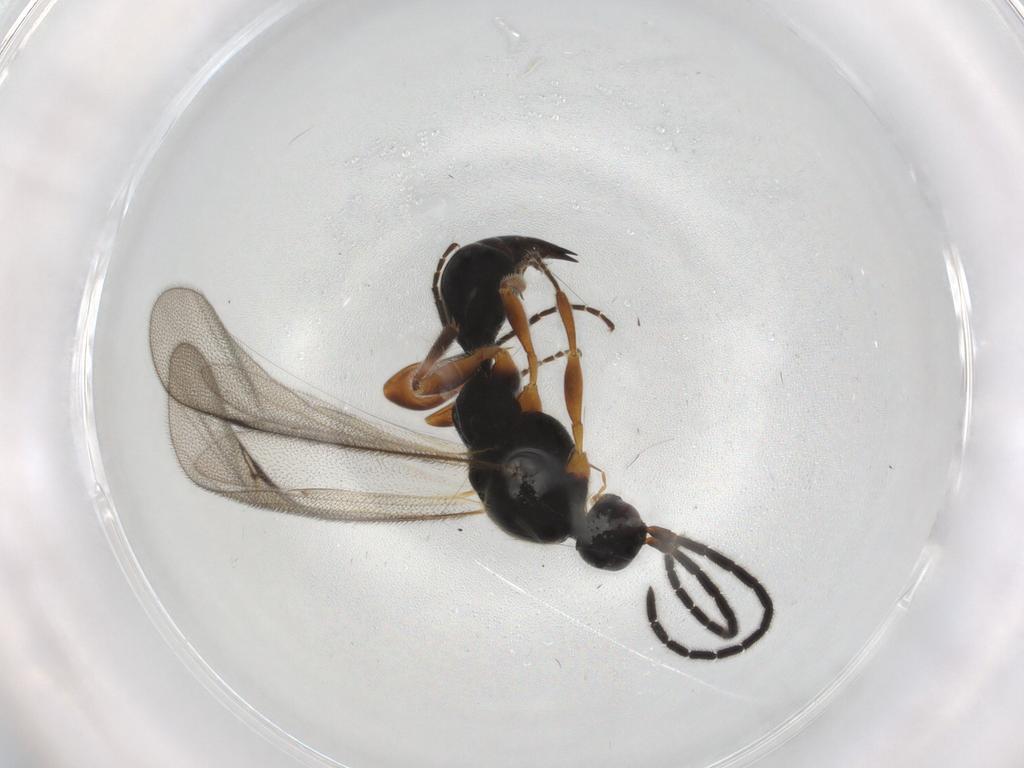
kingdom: Animalia
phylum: Arthropoda
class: Insecta
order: Hymenoptera
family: Proctotrupidae
